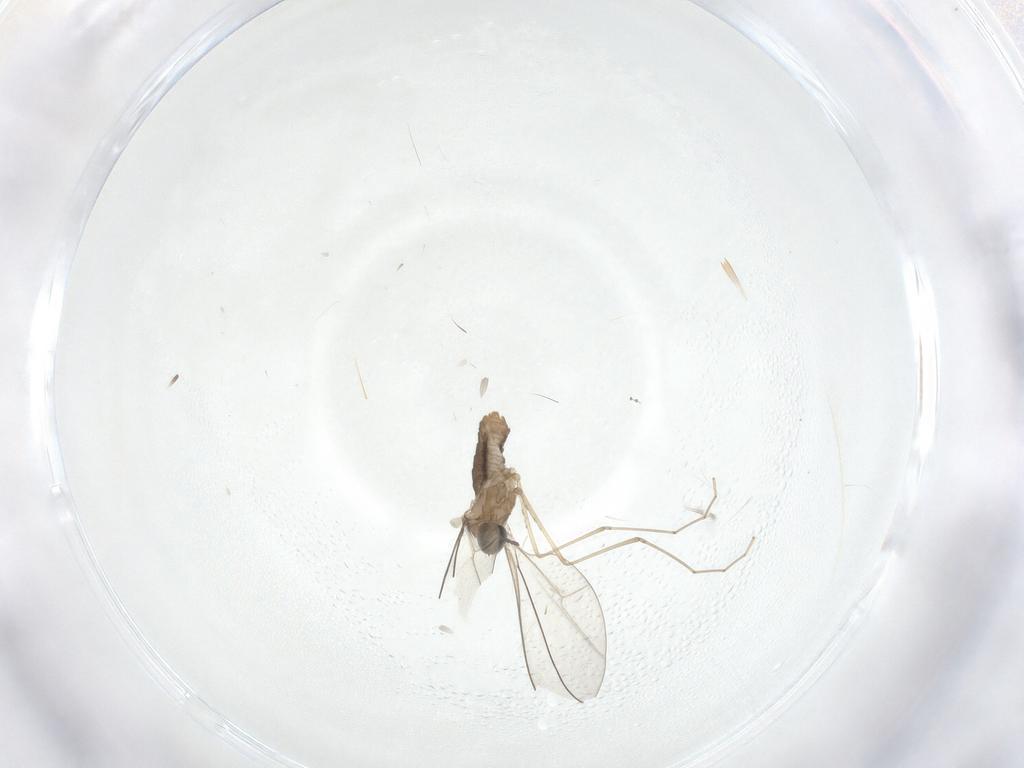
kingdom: Animalia
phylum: Arthropoda
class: Insecta
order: Diptera
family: Cecidomyiidae
